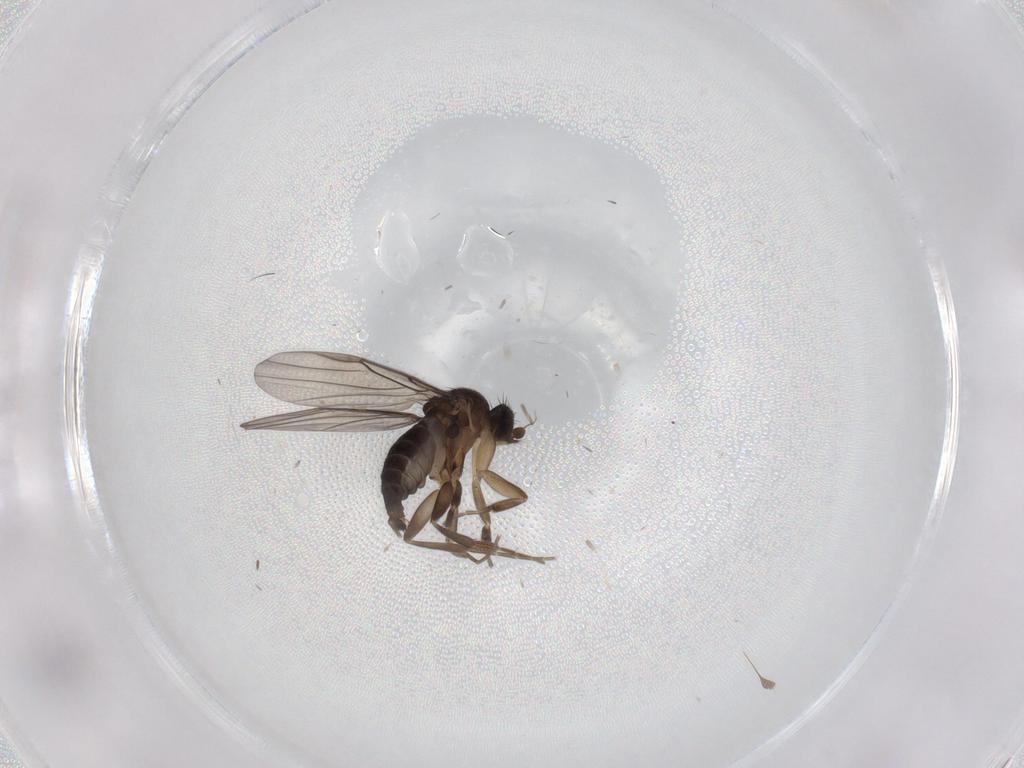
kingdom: Animalia
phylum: Arthropoda
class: Insecta
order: Diptera
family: Phoridae
